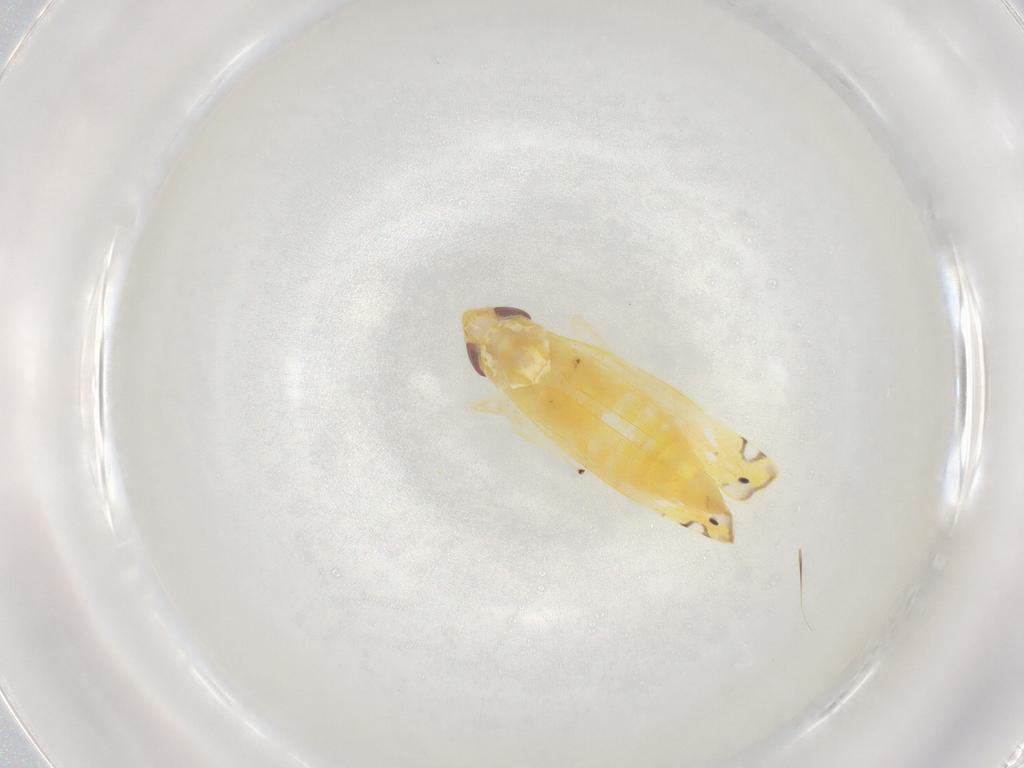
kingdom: Animalia
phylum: Arthropoda
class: Insecta
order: Hemiptera
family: Cicadellidae
